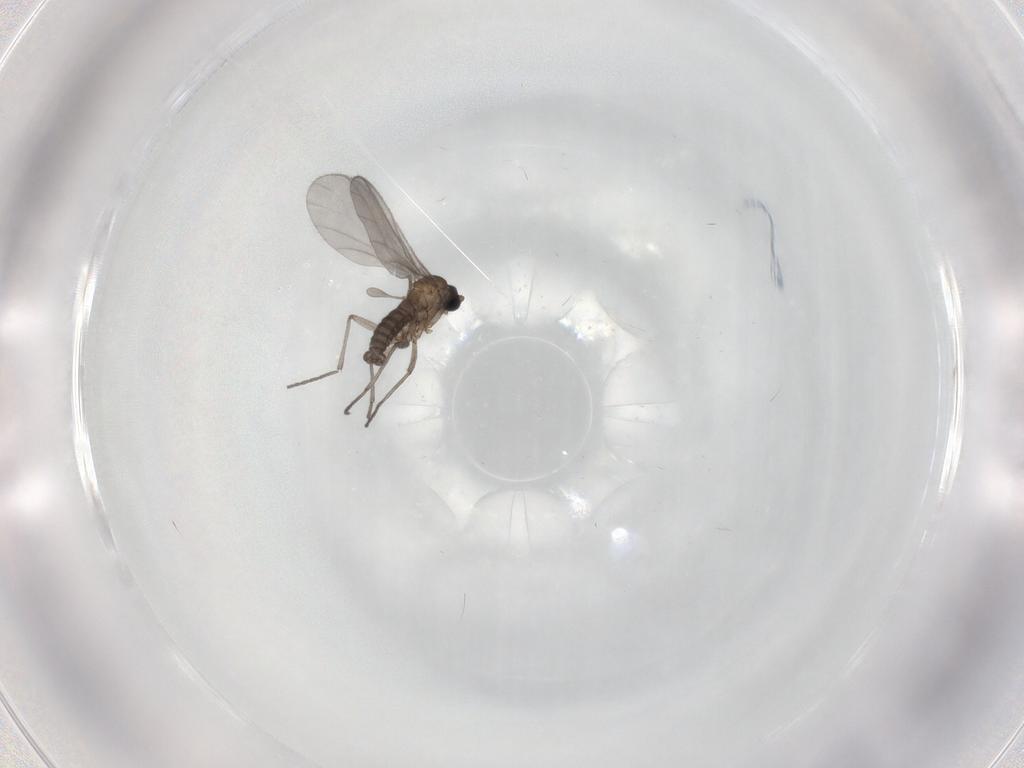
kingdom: Animalia
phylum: Arthropoda
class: Insecta
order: Diptera
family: Sciaridae
